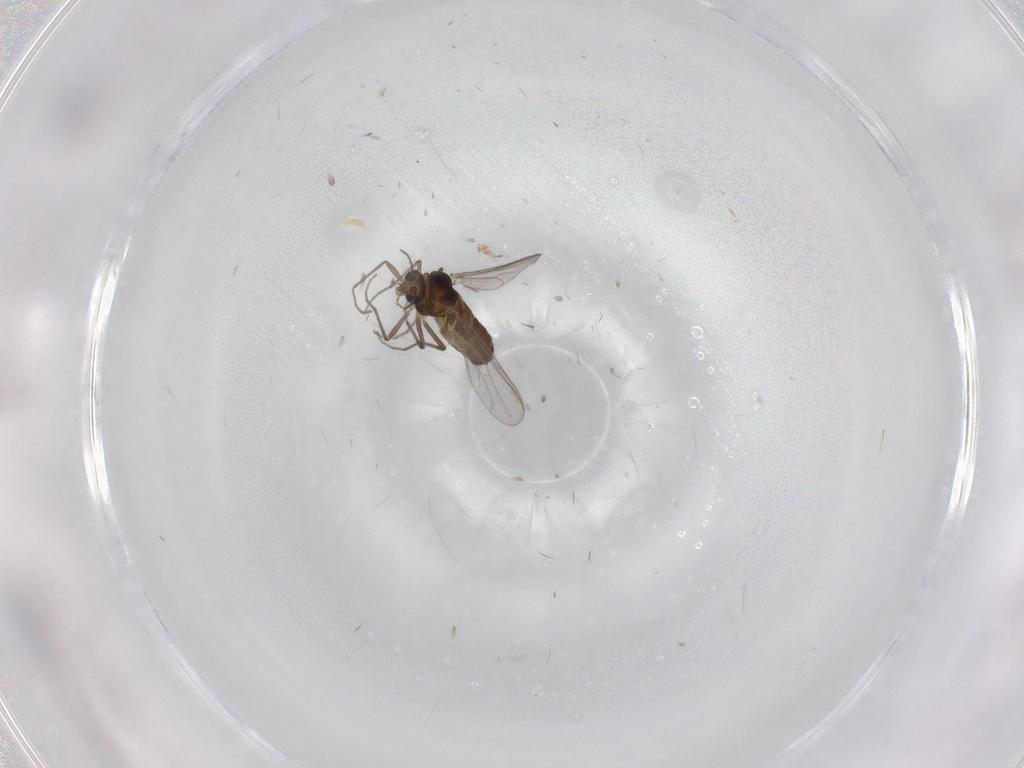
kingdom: Animalia
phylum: Arthropoda
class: Insecta
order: Diptera
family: Chironomidae
